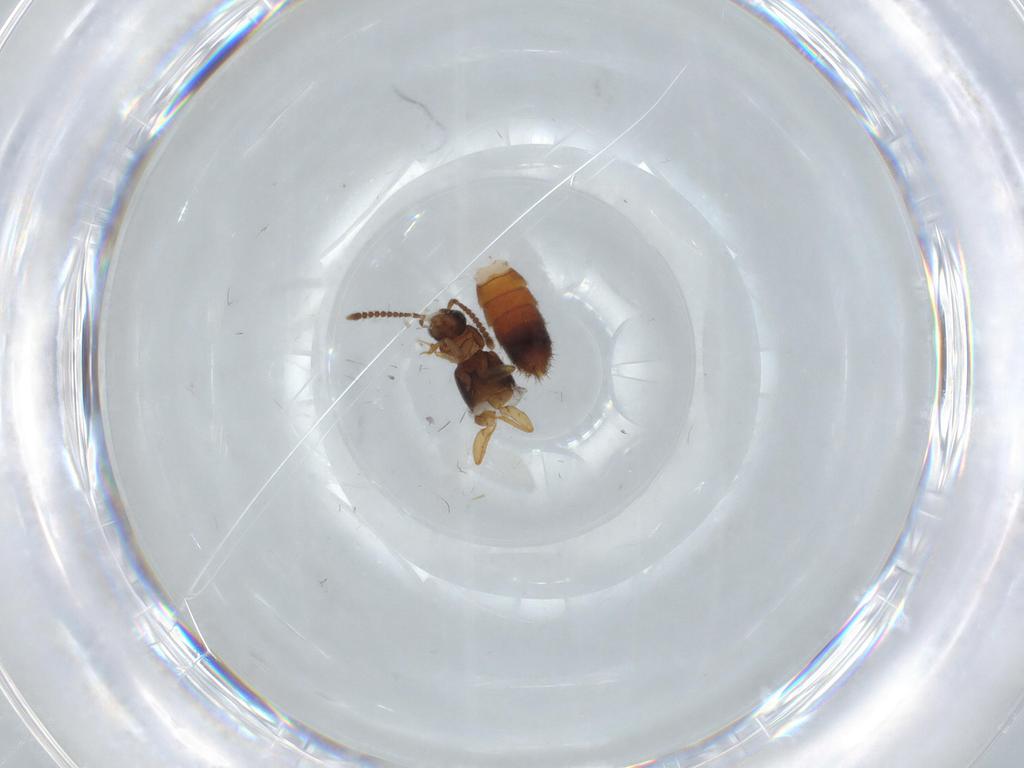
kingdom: Animalia
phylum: Arthropoda
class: Insecta
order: Coleoptera
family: Staphylinidae
